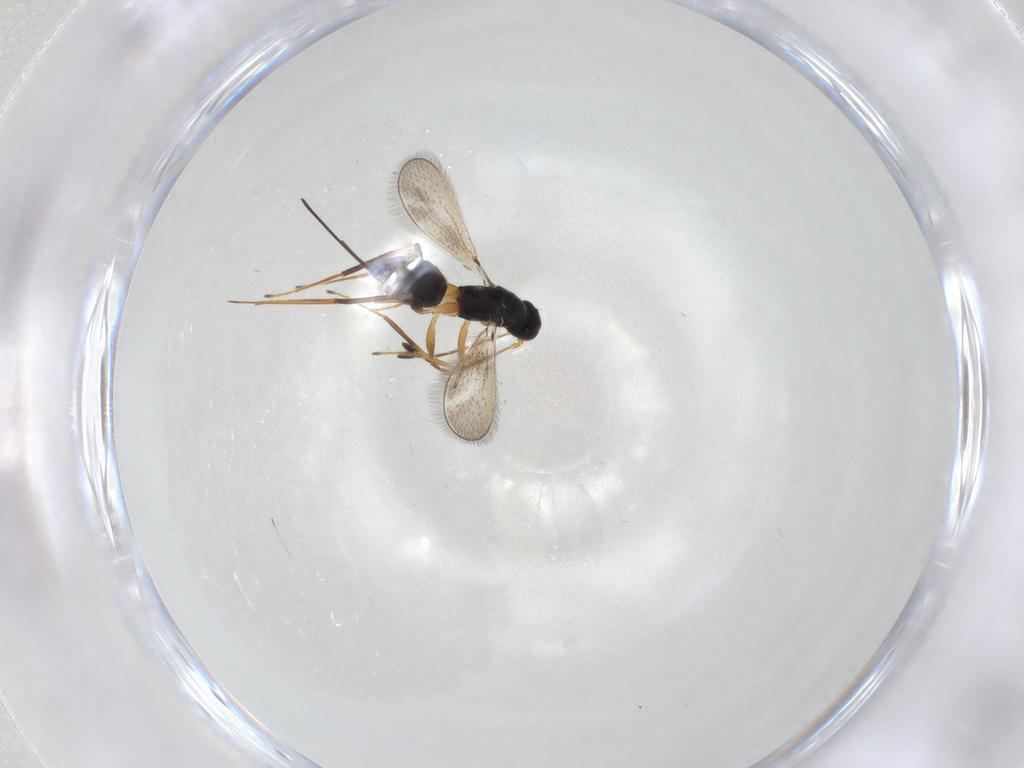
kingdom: Animalia
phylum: Arthropoda
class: Insecta
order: Hymenoptera
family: Mymaridae
